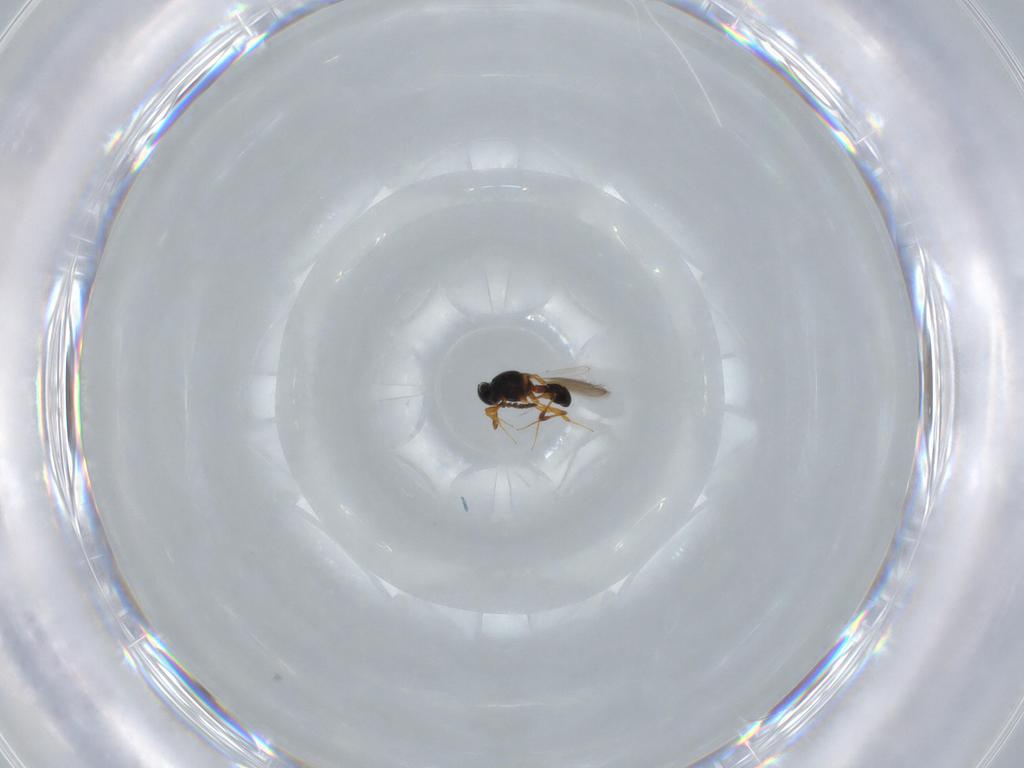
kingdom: Animalia
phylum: Arthropoda
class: Insecta
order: Hymenoptera
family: Platygastridae
